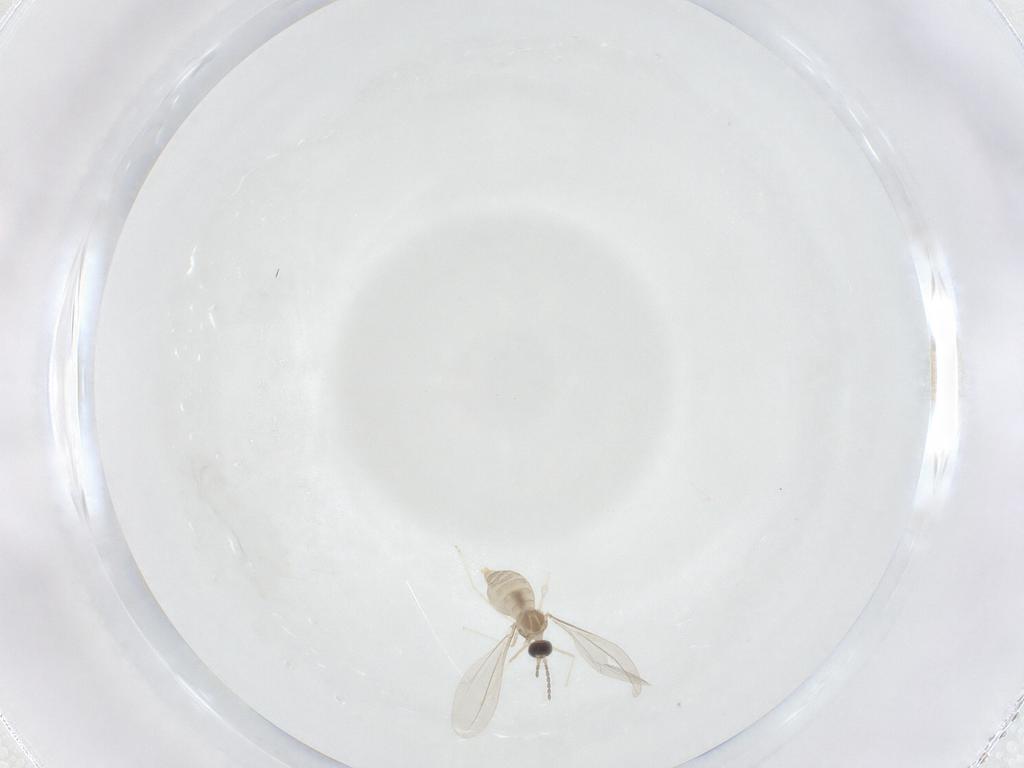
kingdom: Animalia
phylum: Arthropoda
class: Insecta
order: Diptera
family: Cecidomyiidae
